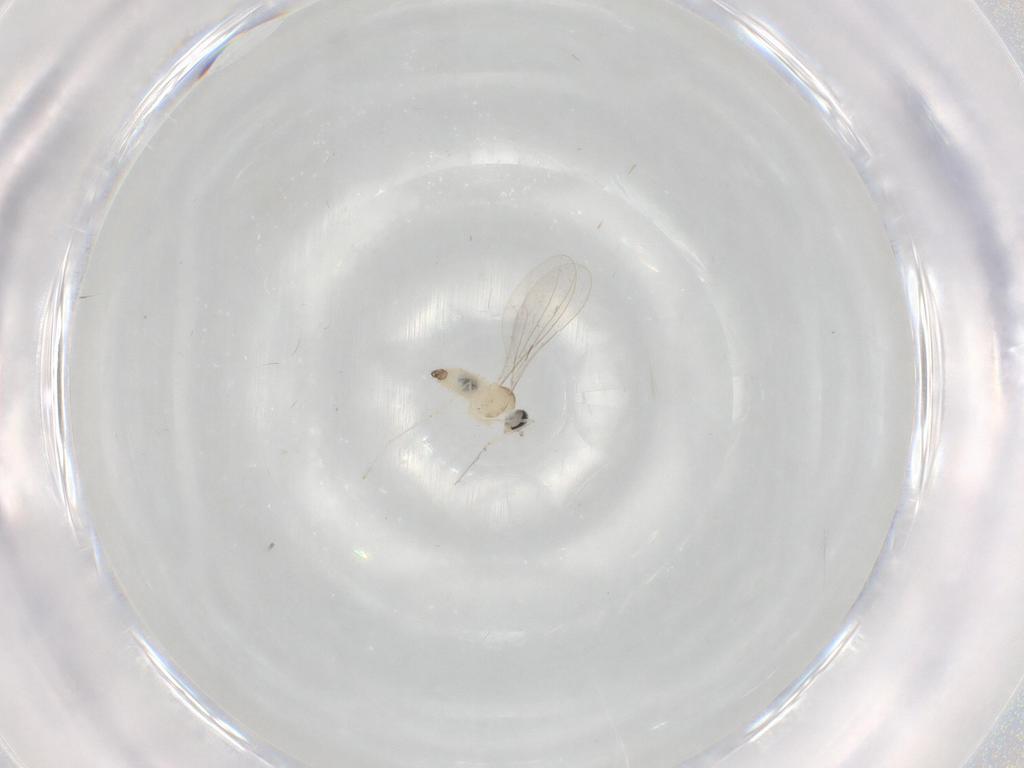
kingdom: Animalia
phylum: Arthropoda
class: Insecta
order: Diptera
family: Cecidomyiidae
